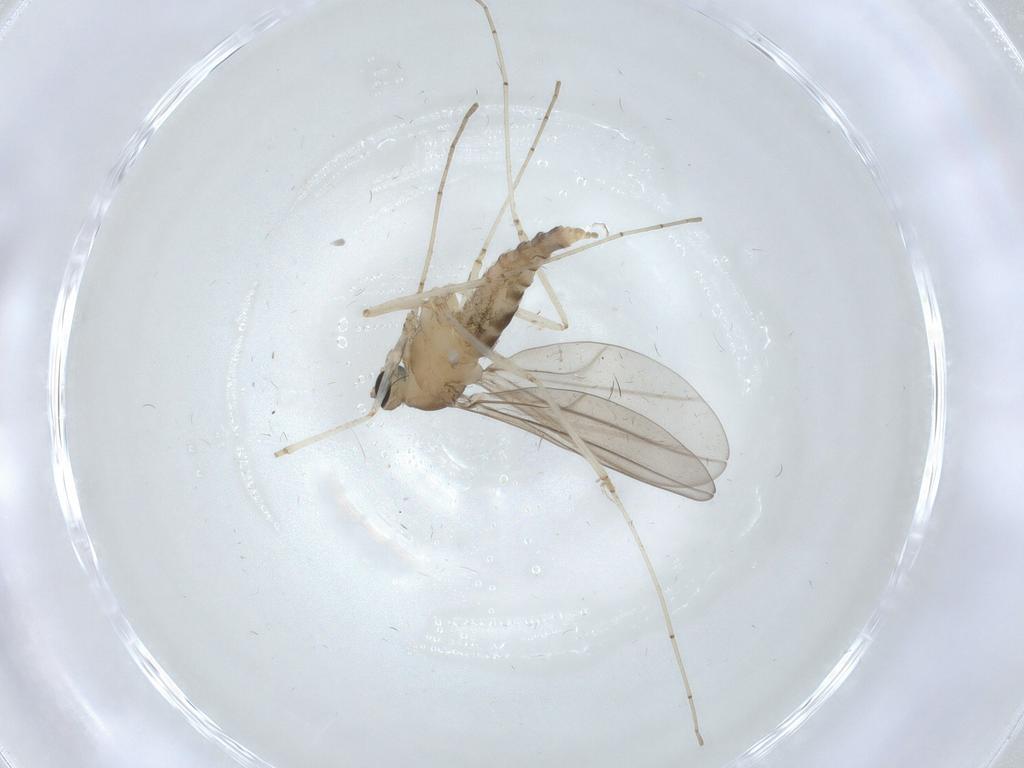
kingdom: Animalia
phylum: Arthropoda
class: Insecta
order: Diptera
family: Cecidomyiidae
